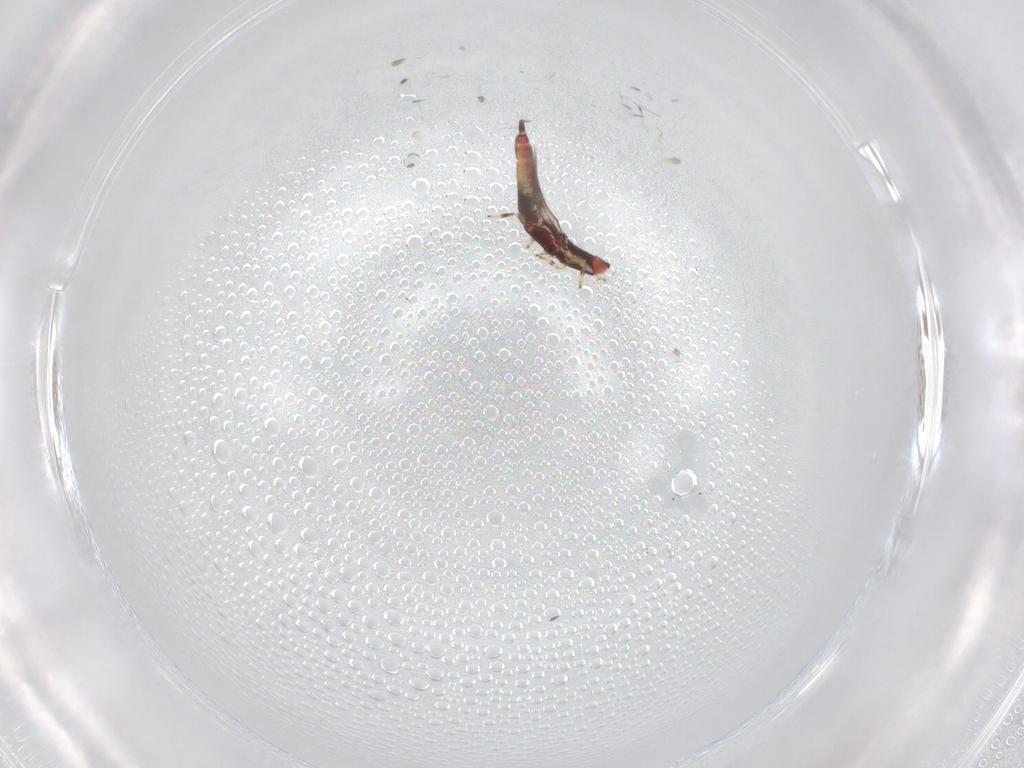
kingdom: Animalia
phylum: Arthropoda
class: Insecta
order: Thysanoptera
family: Phlaeothripidae
